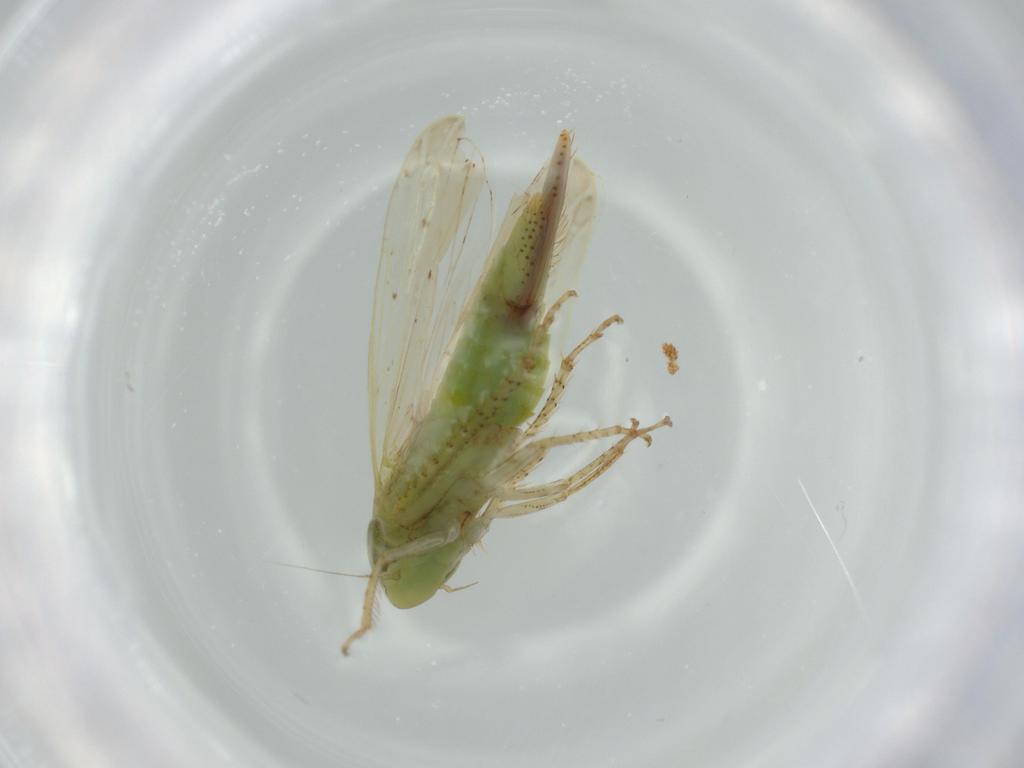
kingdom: Animalia
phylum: Arthropoda
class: Insecta
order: Hemiptera
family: Cicadellidae
